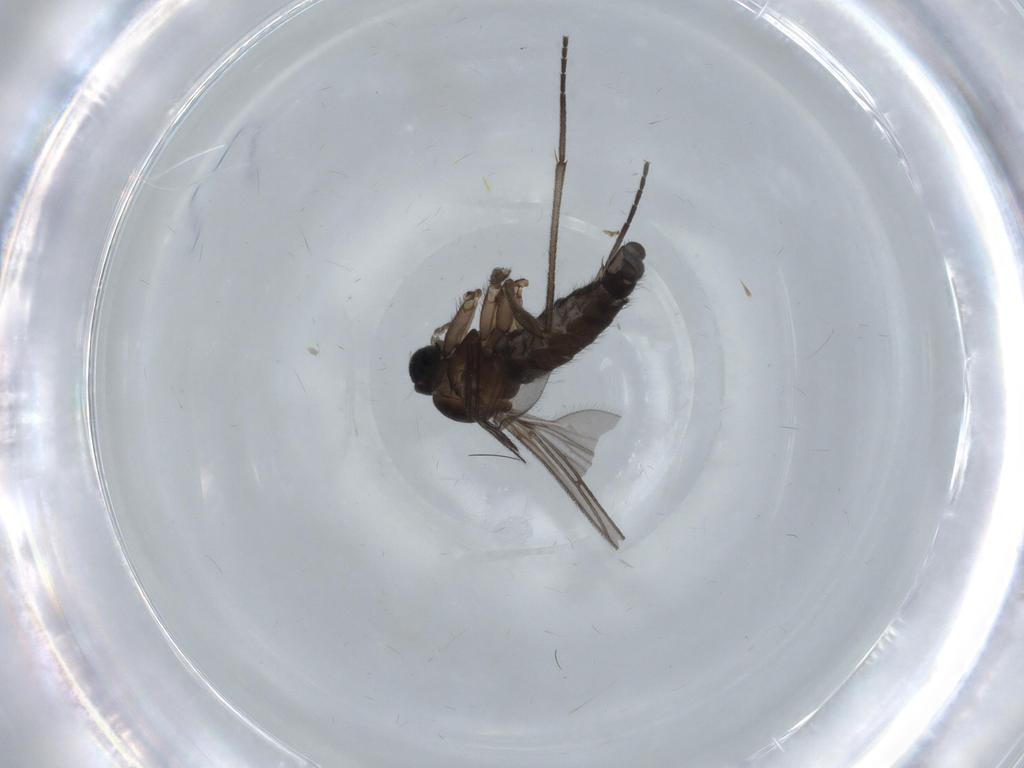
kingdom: Animalia
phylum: Arthropoda
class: Insecta
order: Diptera
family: Sciaridae
